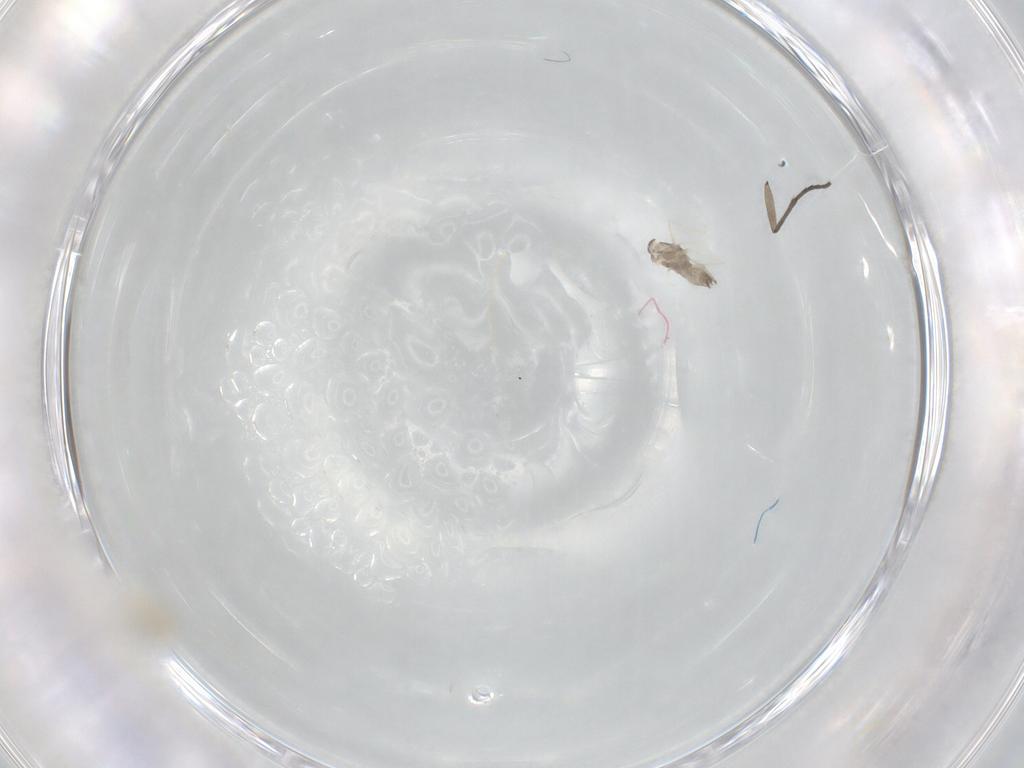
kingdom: Animalia
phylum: Arthropoda
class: Insecta
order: Diptera
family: Cecidomyiidae
